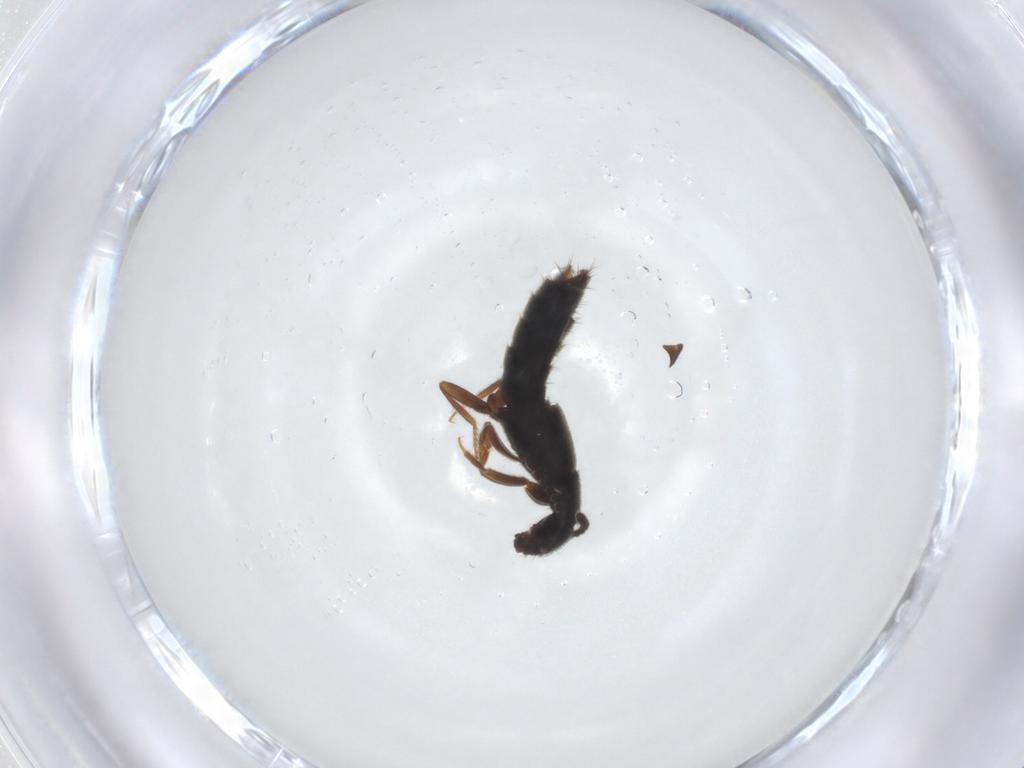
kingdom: Animalia
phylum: Arthropoda
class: Insecta
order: Coleoptera
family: Staphylinidae
